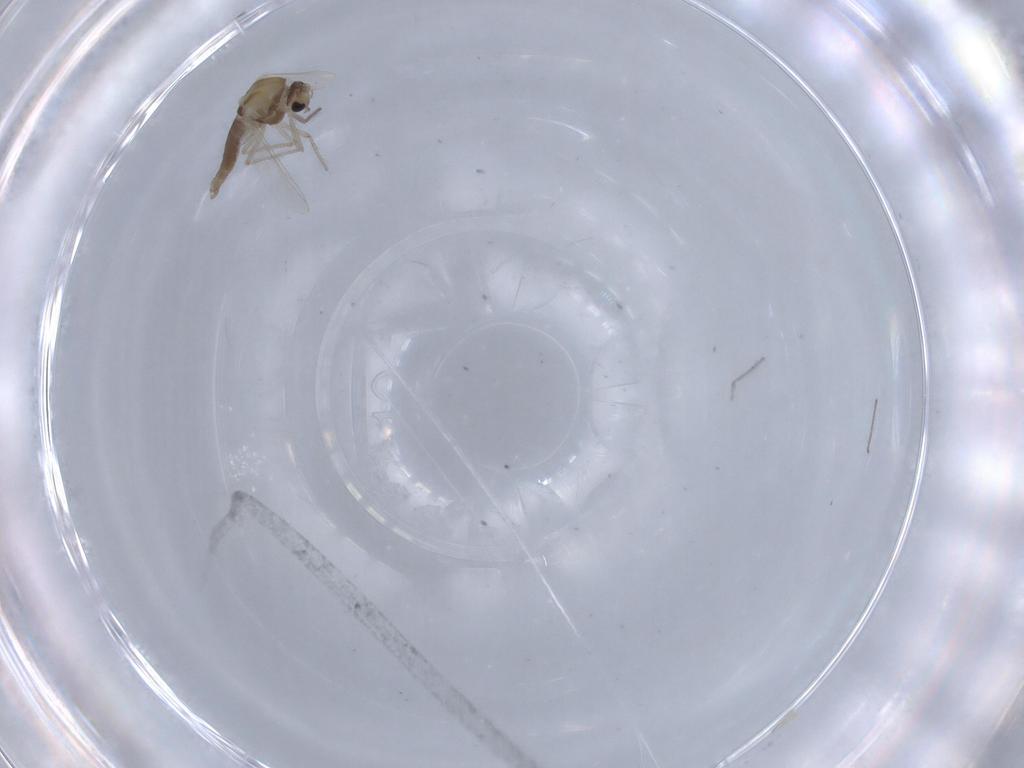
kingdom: Animalia
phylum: Arthropoda
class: Insecta
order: Diptera
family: Chironomidae
